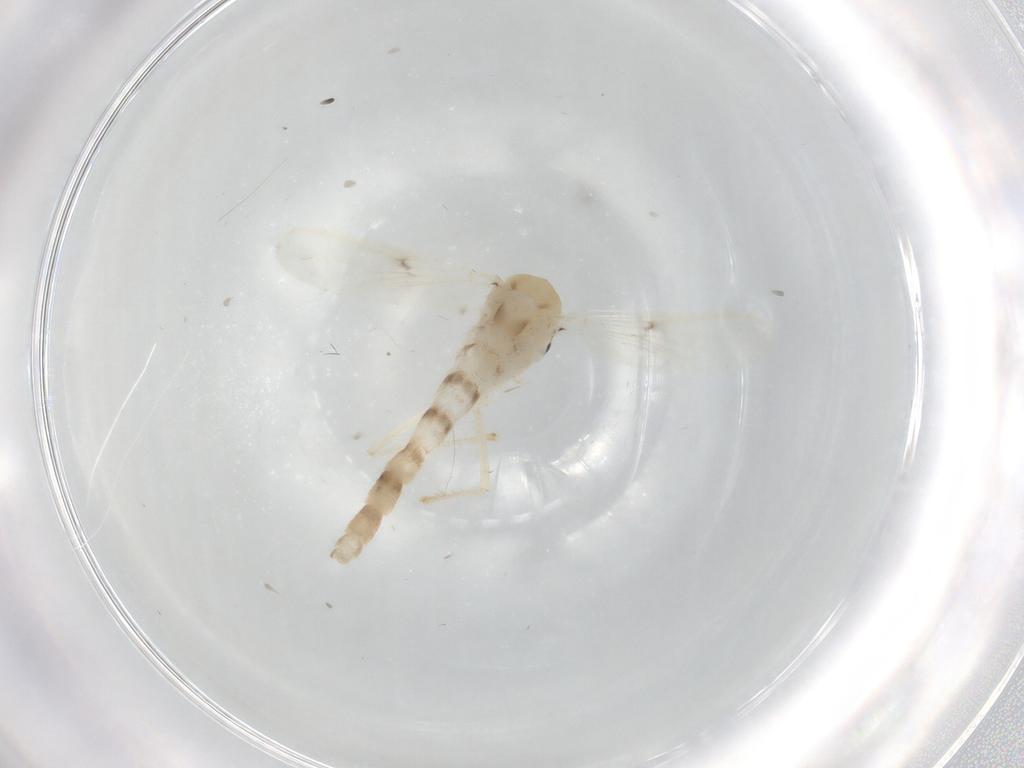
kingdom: Animalia
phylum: Arthropoda
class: Insecta
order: Diptera
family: Chironomidae
